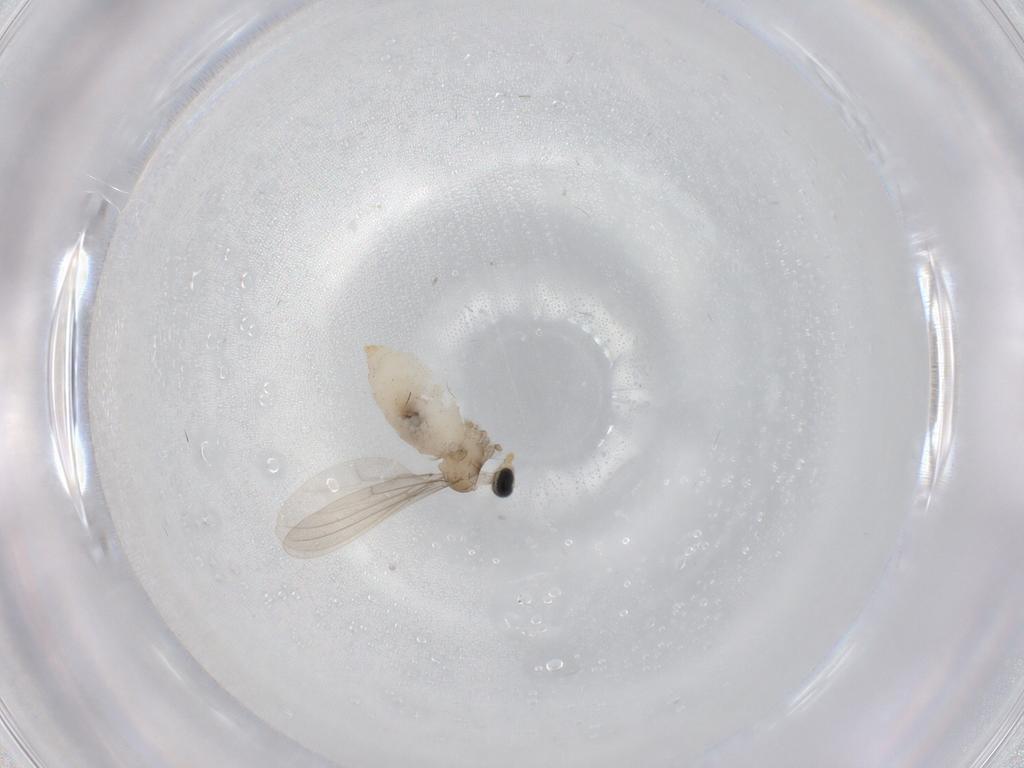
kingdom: Animalia
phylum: Arthropoda
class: Insecta
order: Diptera
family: Cecidomyiidae
